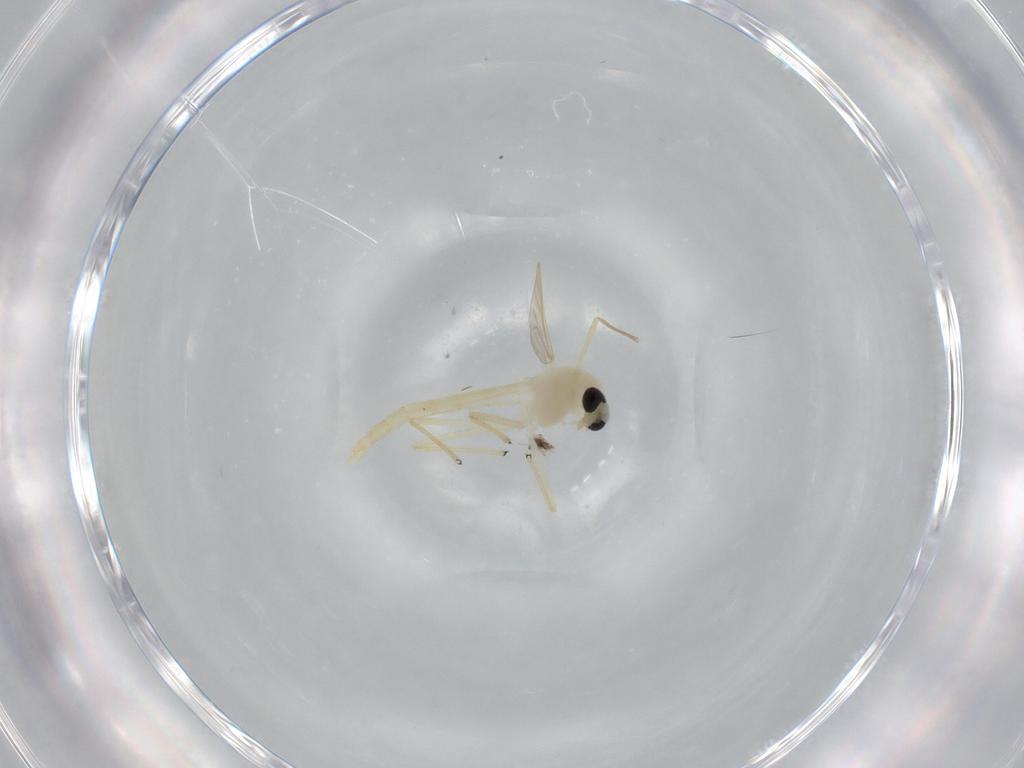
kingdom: Animalia
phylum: Arthropoda
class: Insecta
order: Diptera
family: Chironomidae
